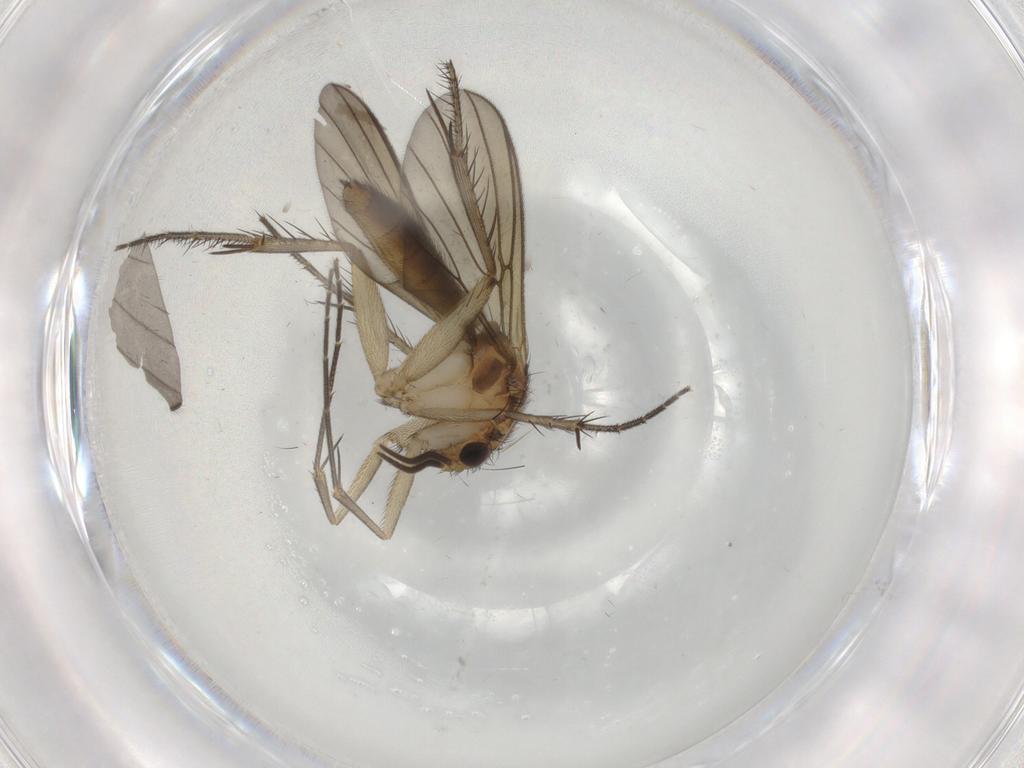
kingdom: Animalia
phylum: Arthropoda
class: Insecta
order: Diptera
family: Mycetophilidae
